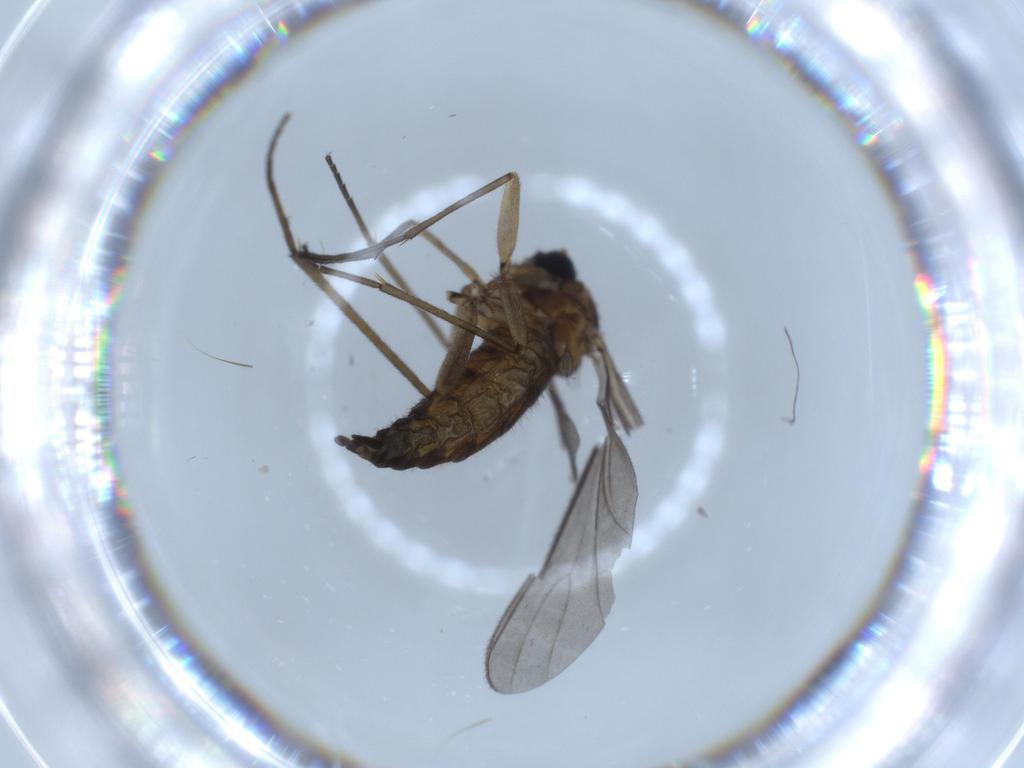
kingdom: Animalia
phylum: Arthropoda
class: Insecta
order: Diptera
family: Sciaridae
